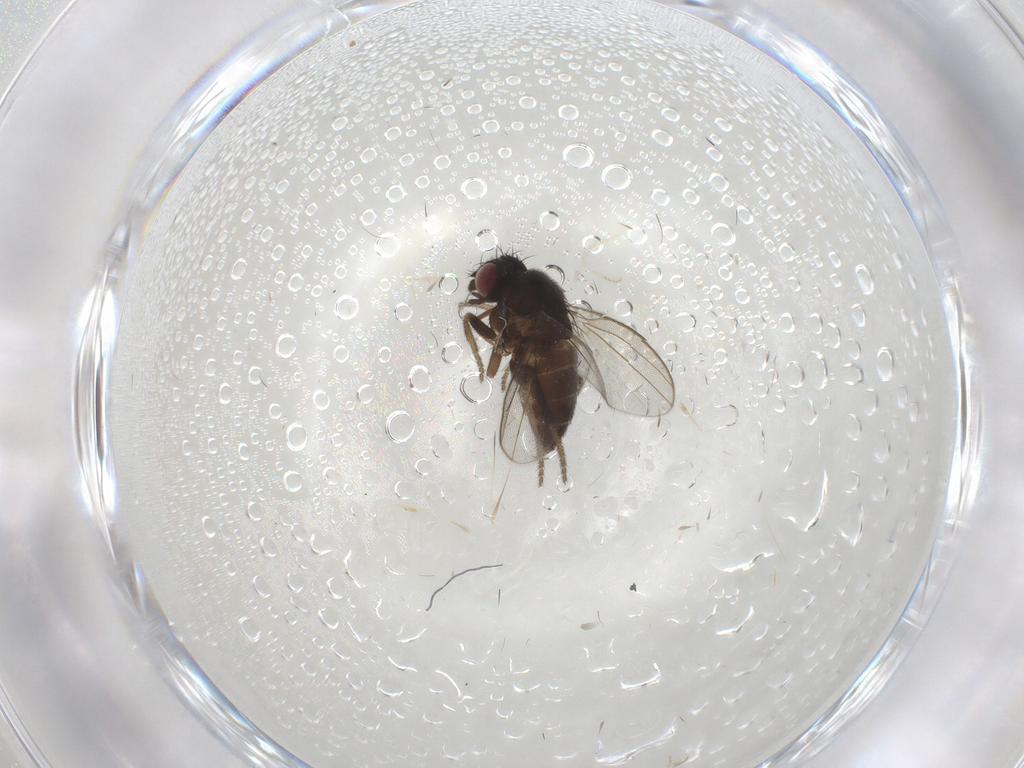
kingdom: Animalia
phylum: Arthropoda
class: Insecta
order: Diptera
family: Milichiidae
